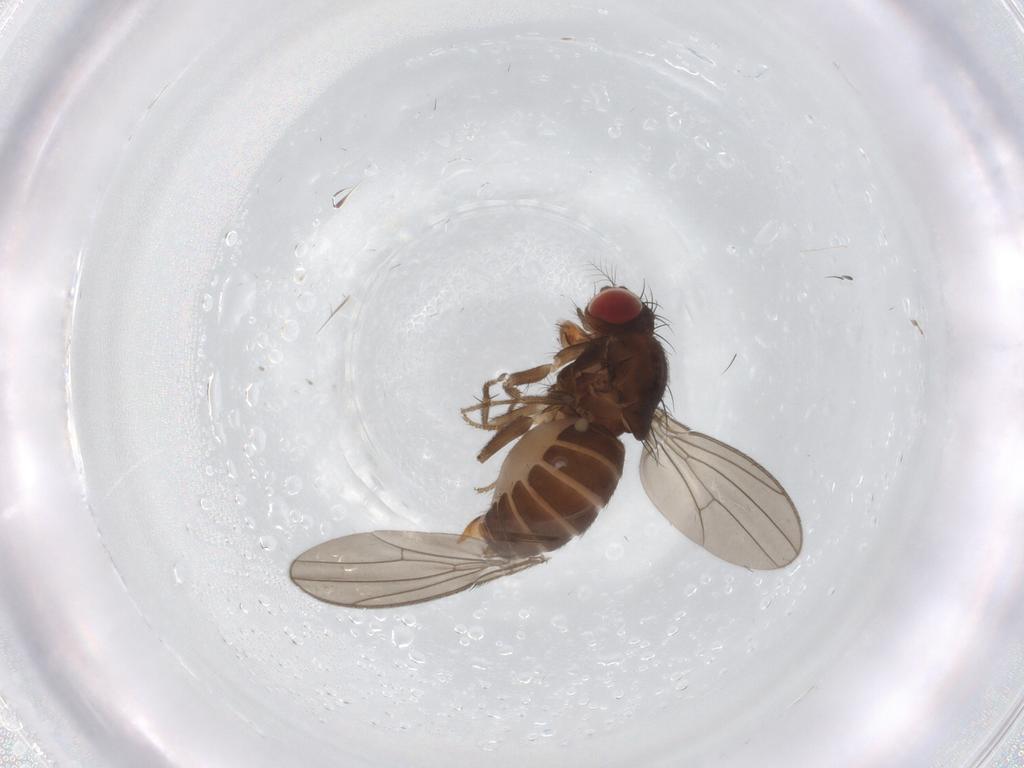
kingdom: Animalia
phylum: Arthropoda
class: Insecta
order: Diptera
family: Drosophilidae
